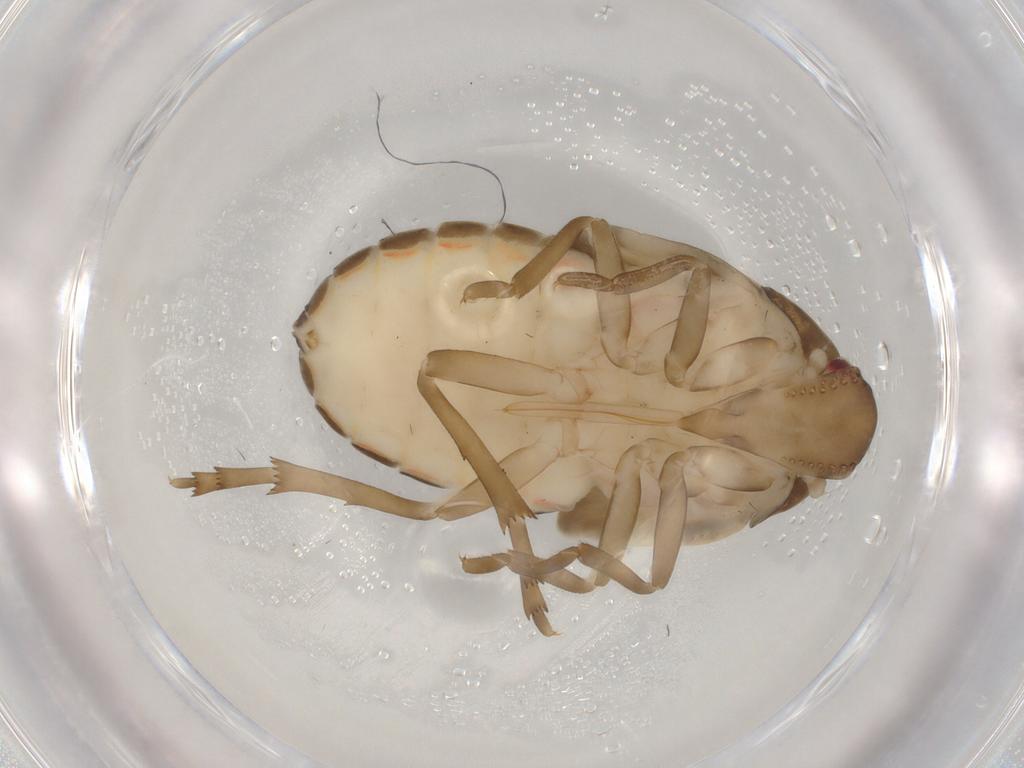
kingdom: Animalia
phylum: Arthropoda
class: Insecta
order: Hemiptera
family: Achilidae
